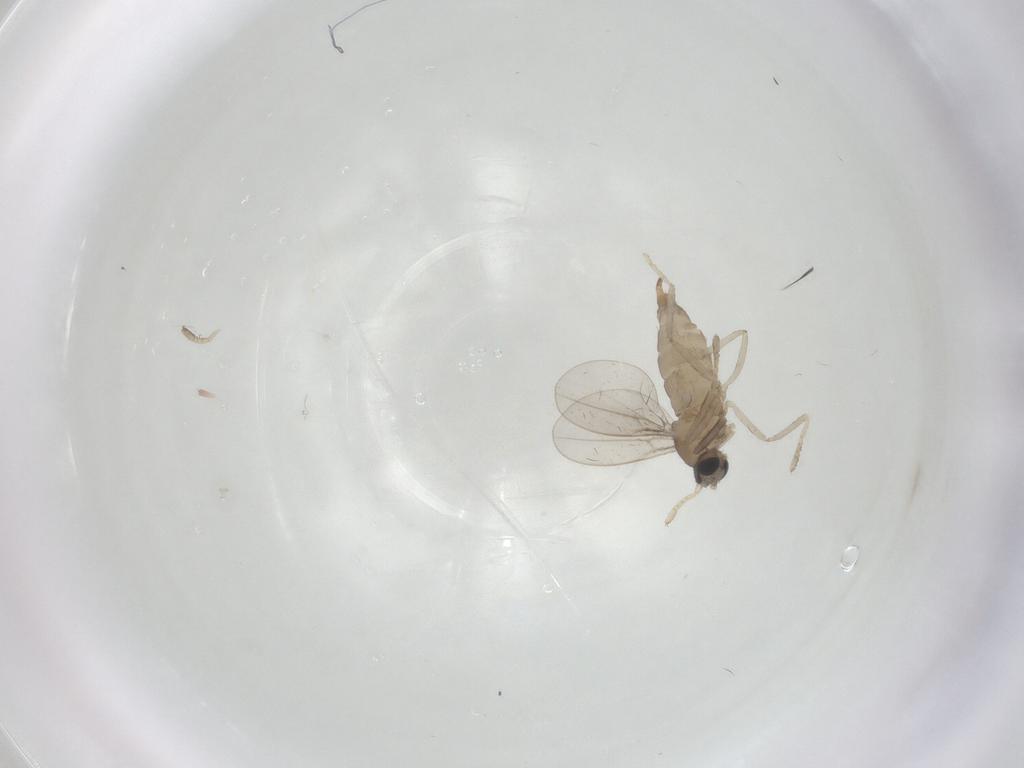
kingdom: Animalia
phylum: Arthropoda
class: Insecta
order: Diptera
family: Cecidomyiidae
